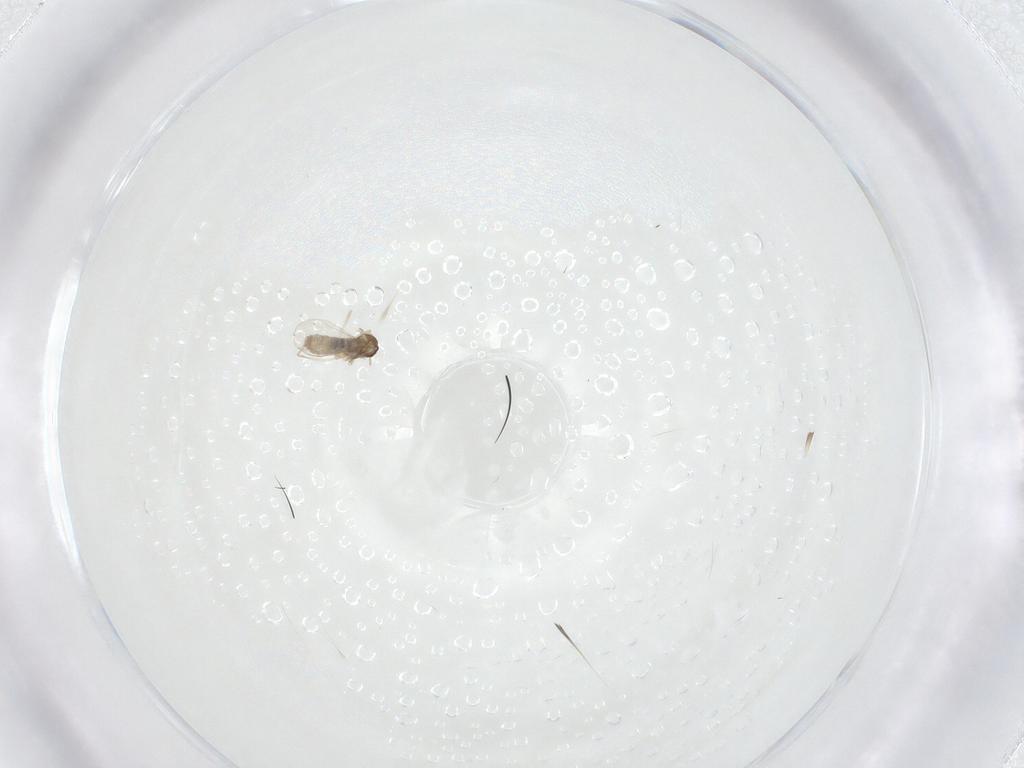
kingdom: Animalia
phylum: Arthropoda
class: Insecta
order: Diptera
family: Cecidomyiidae
